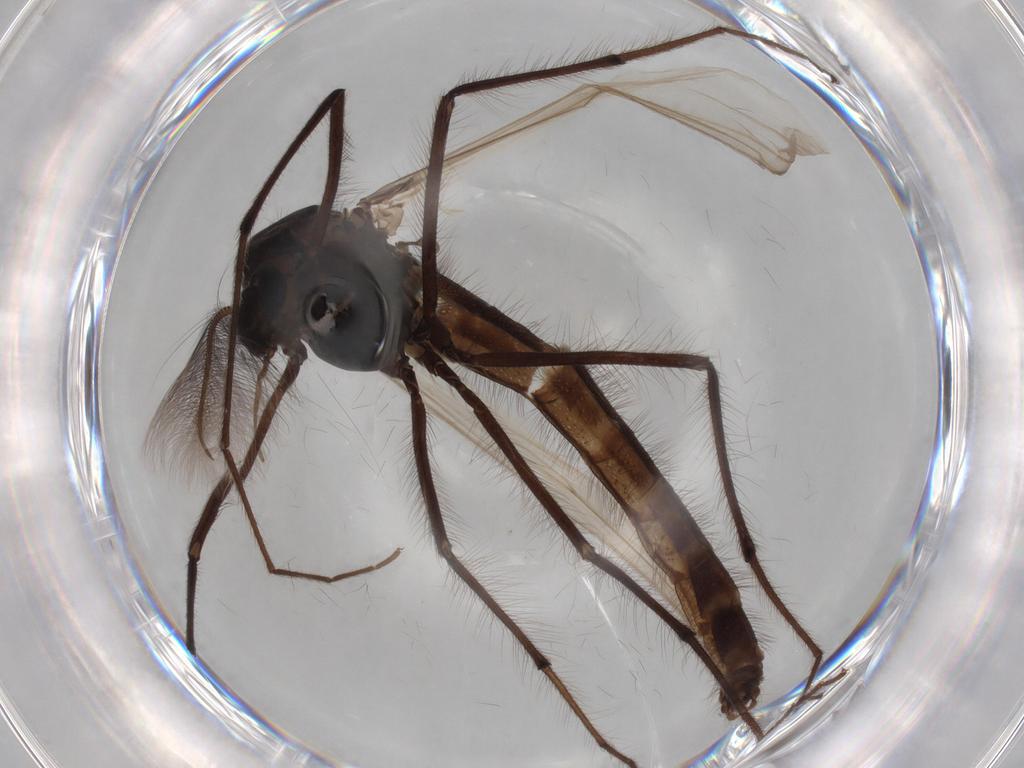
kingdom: Animalia
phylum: Arthropoda
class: Insecta
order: Diptera
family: Chironomidae
